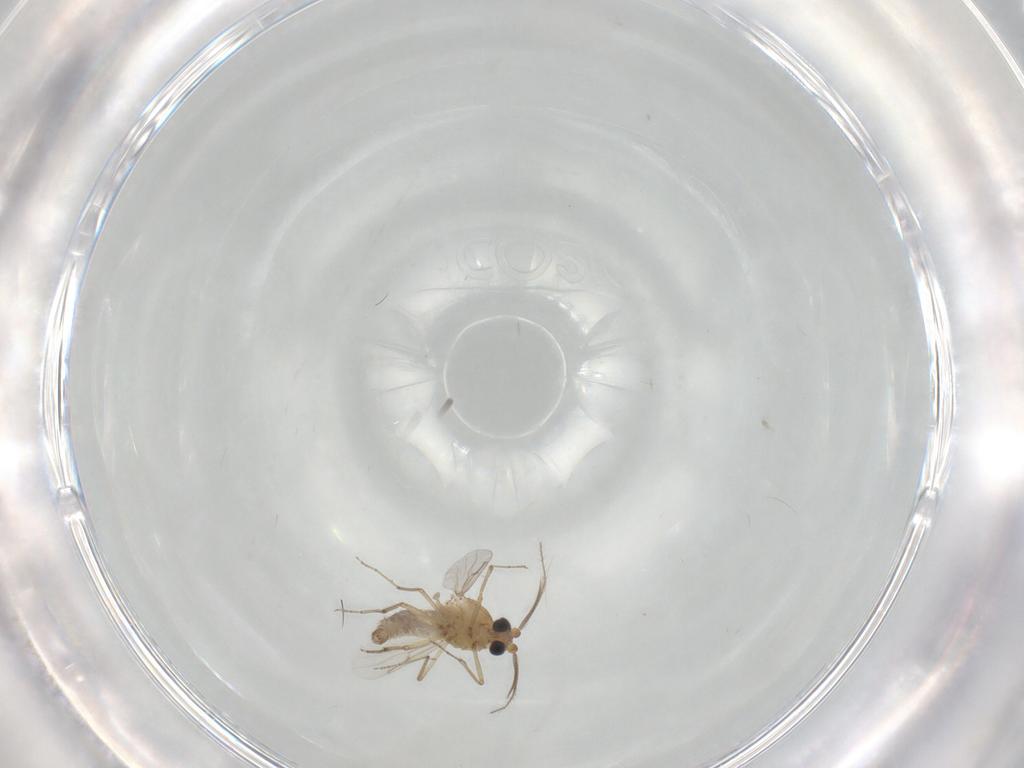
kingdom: Animalia
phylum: Arthropoda
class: Insecta
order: Diptera
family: Ceratopogonidae
